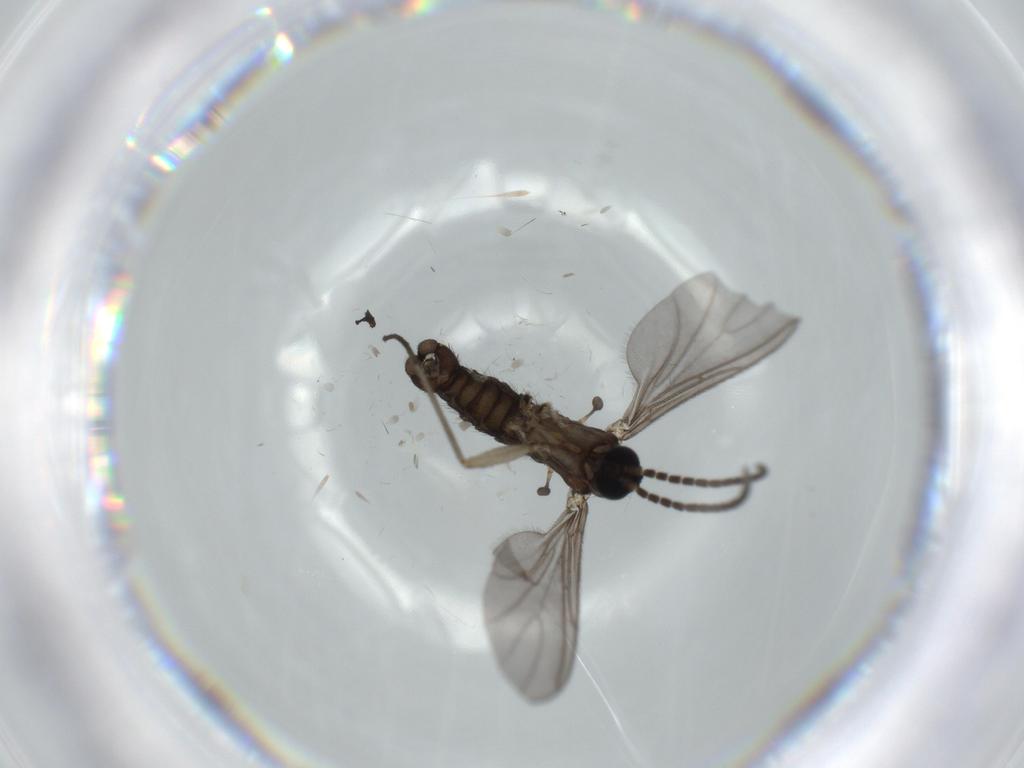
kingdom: Animalia
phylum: Arthropoda
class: Insecta
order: Diptera
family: Sciaridae
